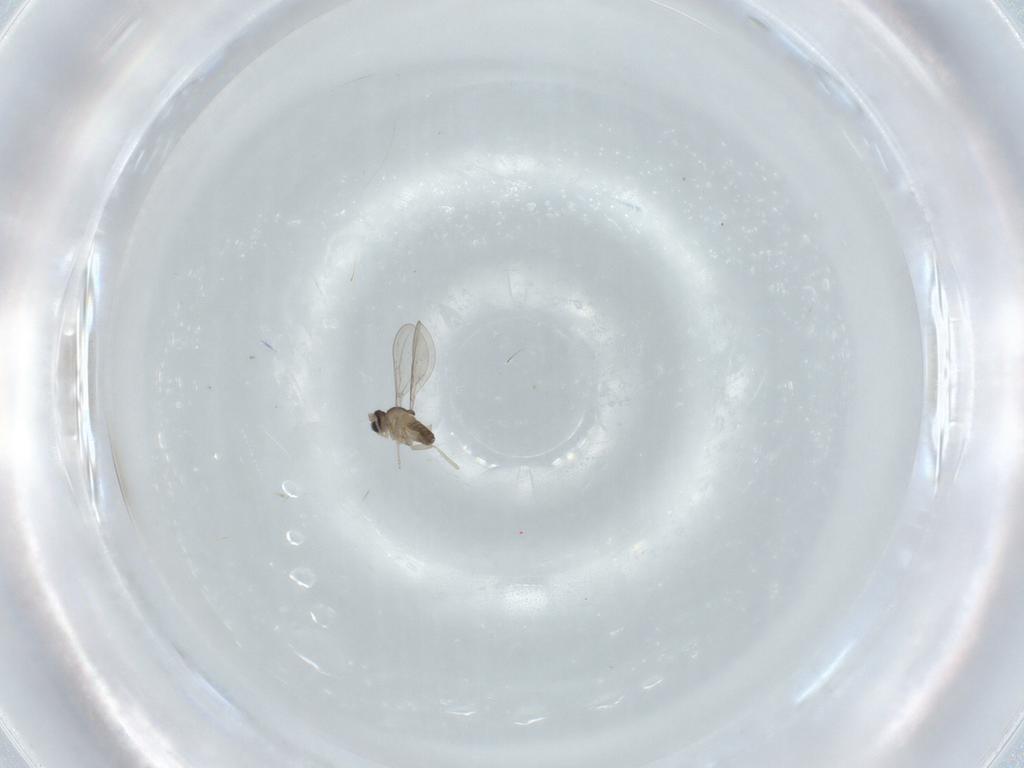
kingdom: Animalia
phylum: Arthropoda
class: Insecta
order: Diptera
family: Cecidomyiidae
